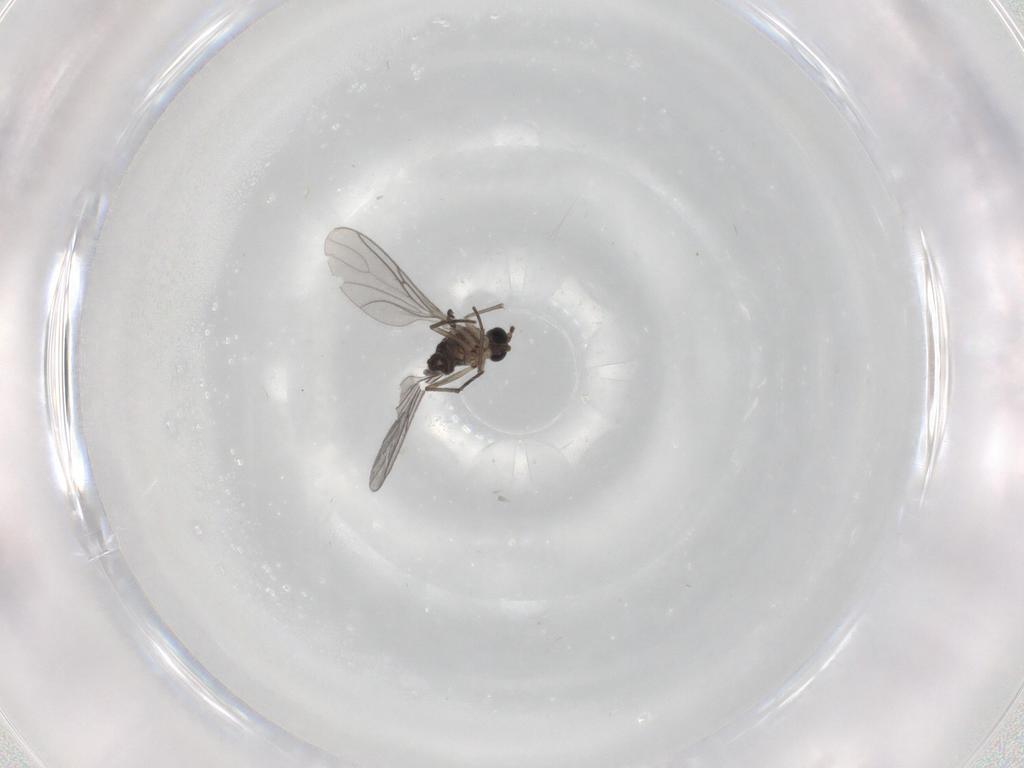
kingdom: Animalia
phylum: Arthropoda
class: Insecta
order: Diptera
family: Sciaridae
